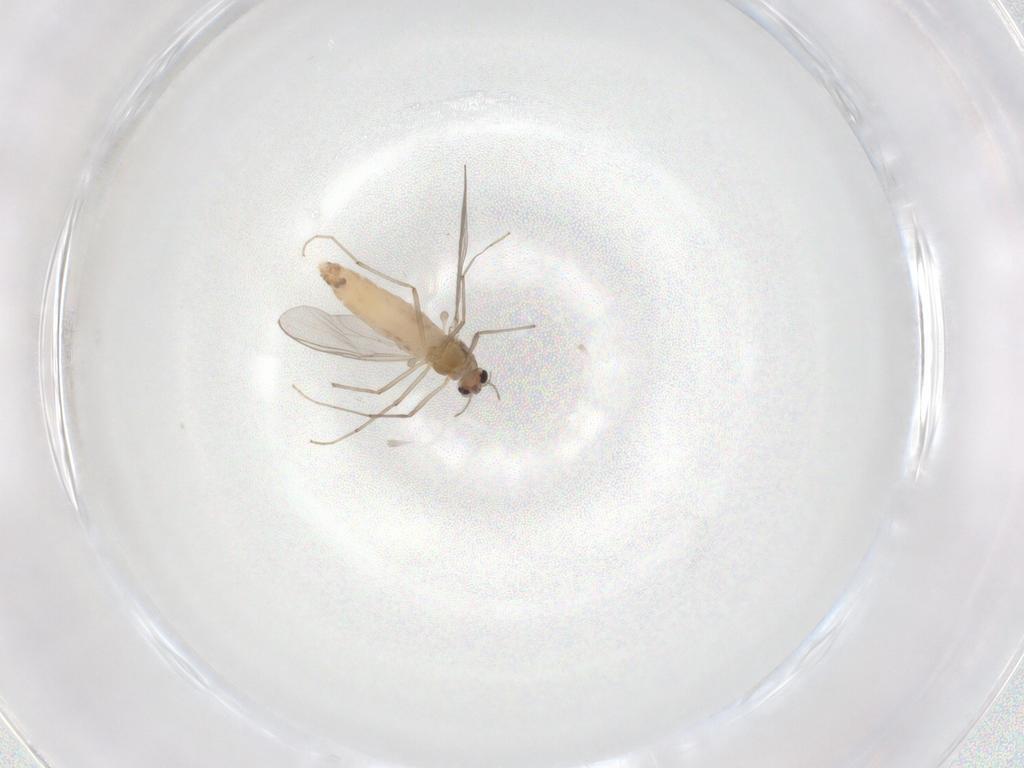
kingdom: Animalia
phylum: Arthropoda
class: Insecta
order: Diptera
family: Chironomidae
